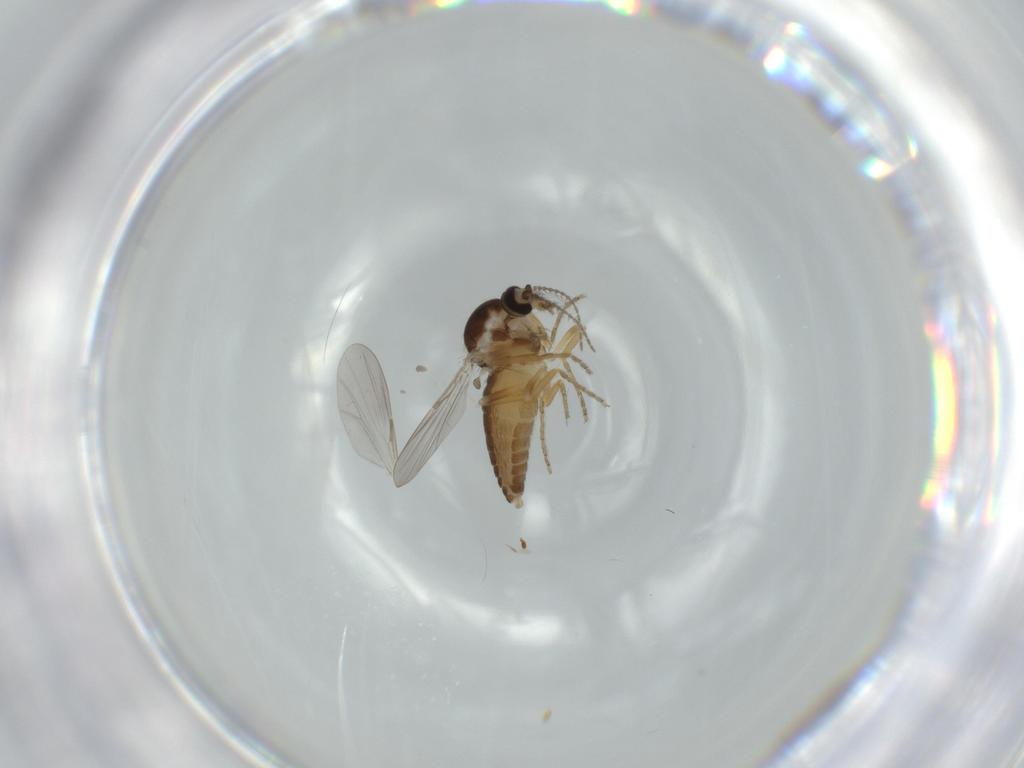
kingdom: Animalia
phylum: Arthropoda
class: Insecta
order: Diptera
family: Ceratopogonidae
